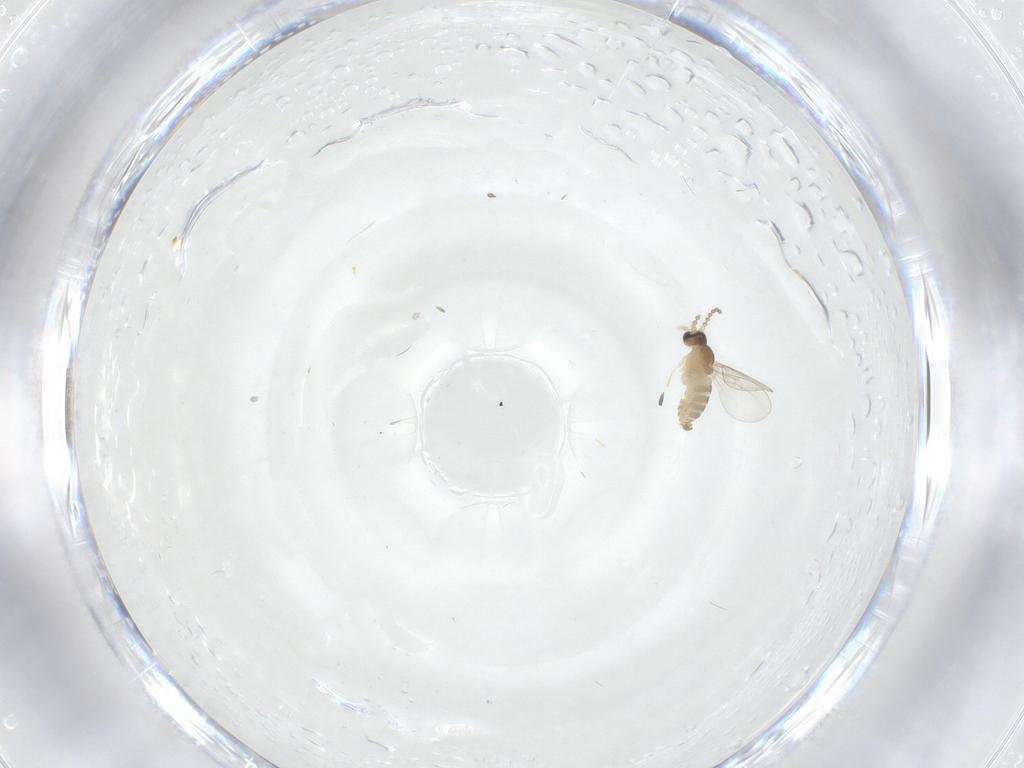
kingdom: Animalia
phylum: Arthropoda
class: Insecta
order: Diptera
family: Cecidomyiidae
